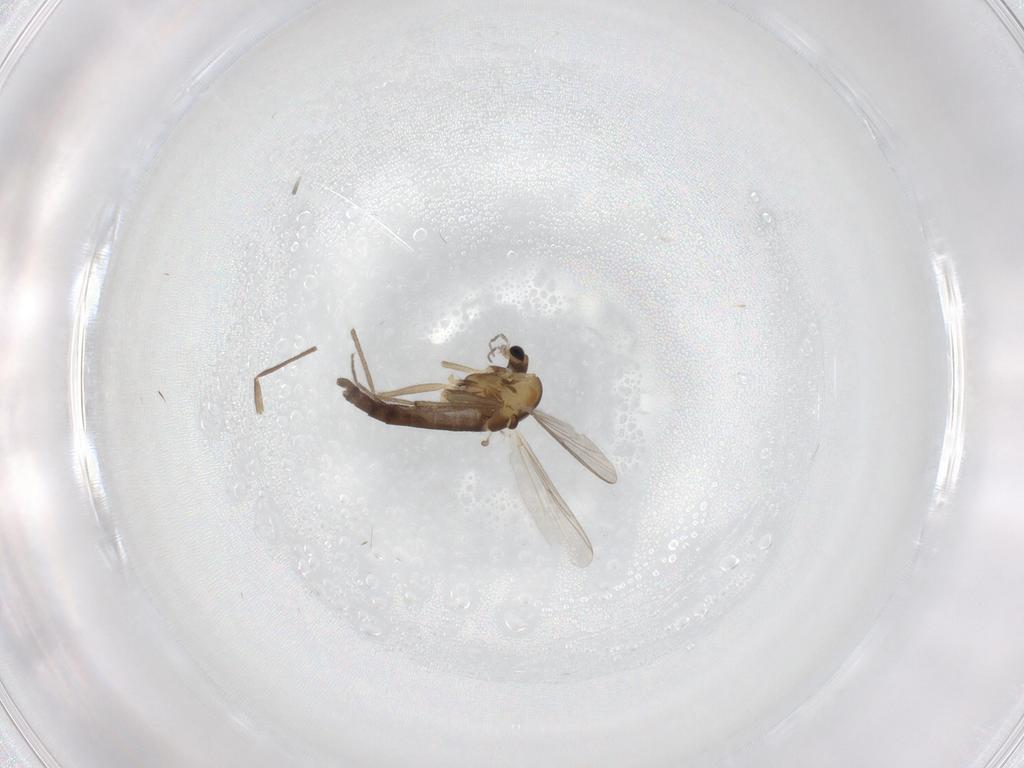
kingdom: Animalia
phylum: Arthropoda
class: Insecta
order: Diptera
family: Chironomidae
